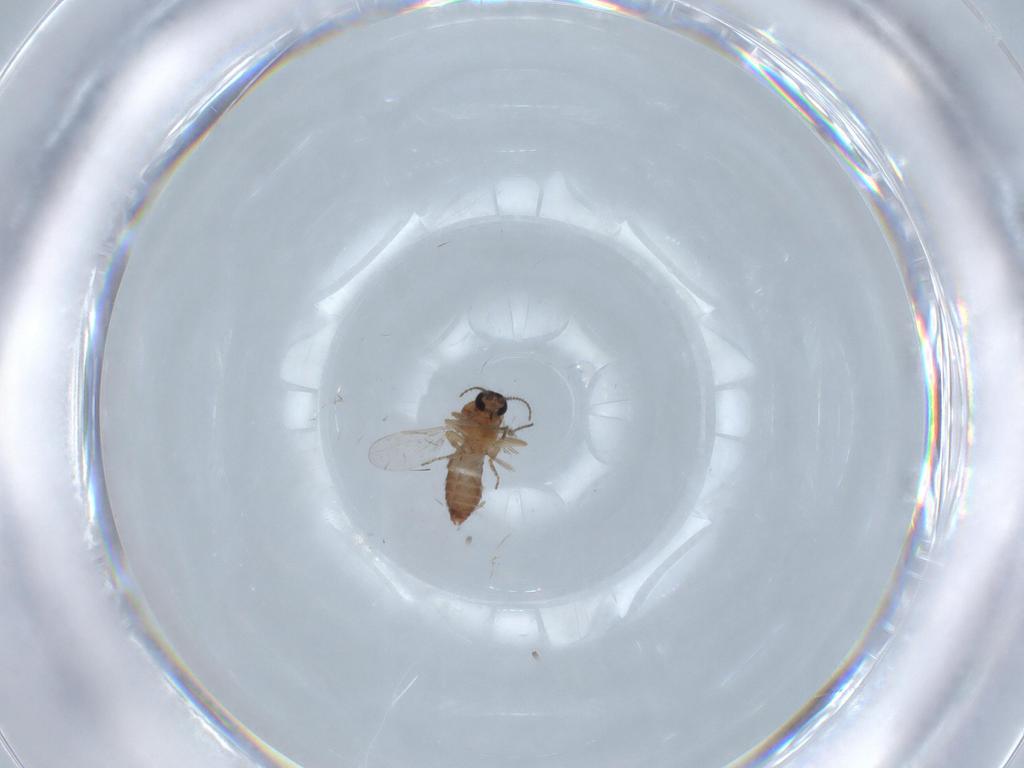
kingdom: Animalia
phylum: Arthropoda
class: Insecta
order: Diptera
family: Ceratopogonidae
